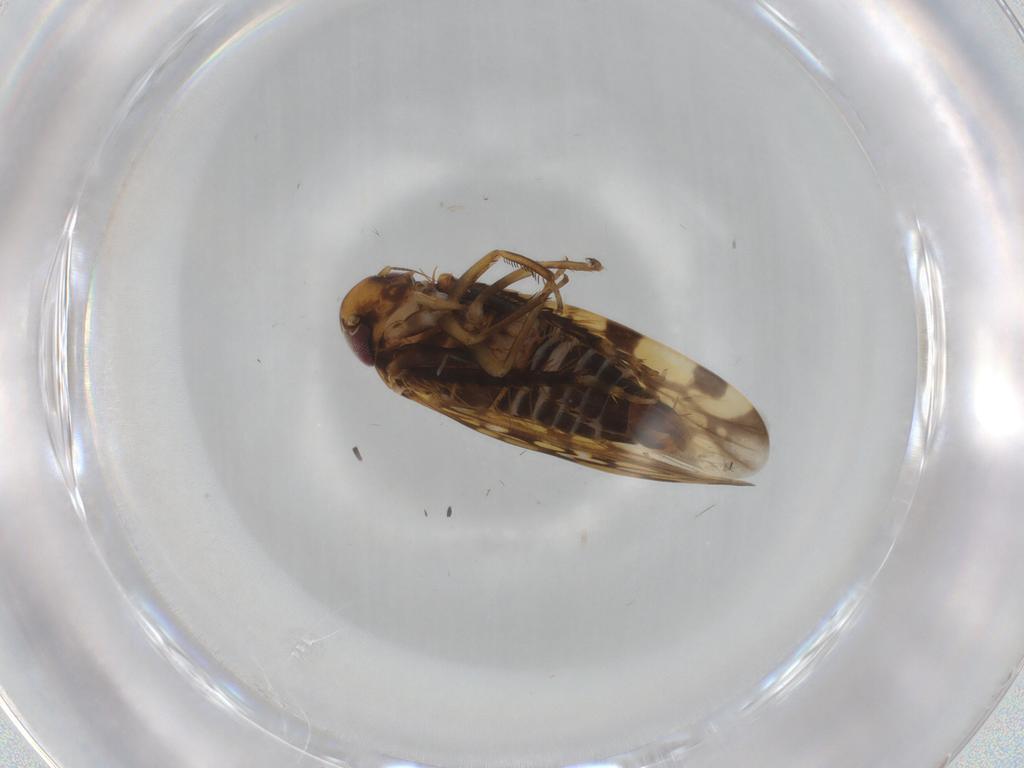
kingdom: Animalia
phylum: Arthropoda
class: Insecta
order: Hemiptera
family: Cicadellidae
